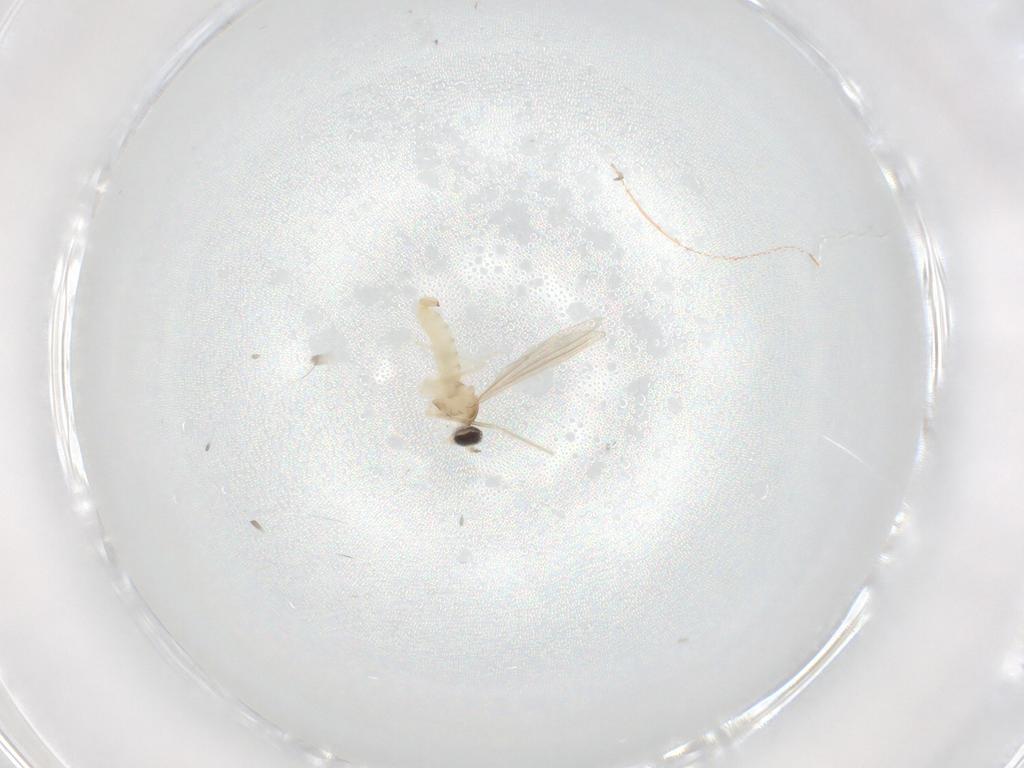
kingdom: Animalia
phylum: Arthropoda
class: Insecta
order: Diptera
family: Cecidomyiidae
